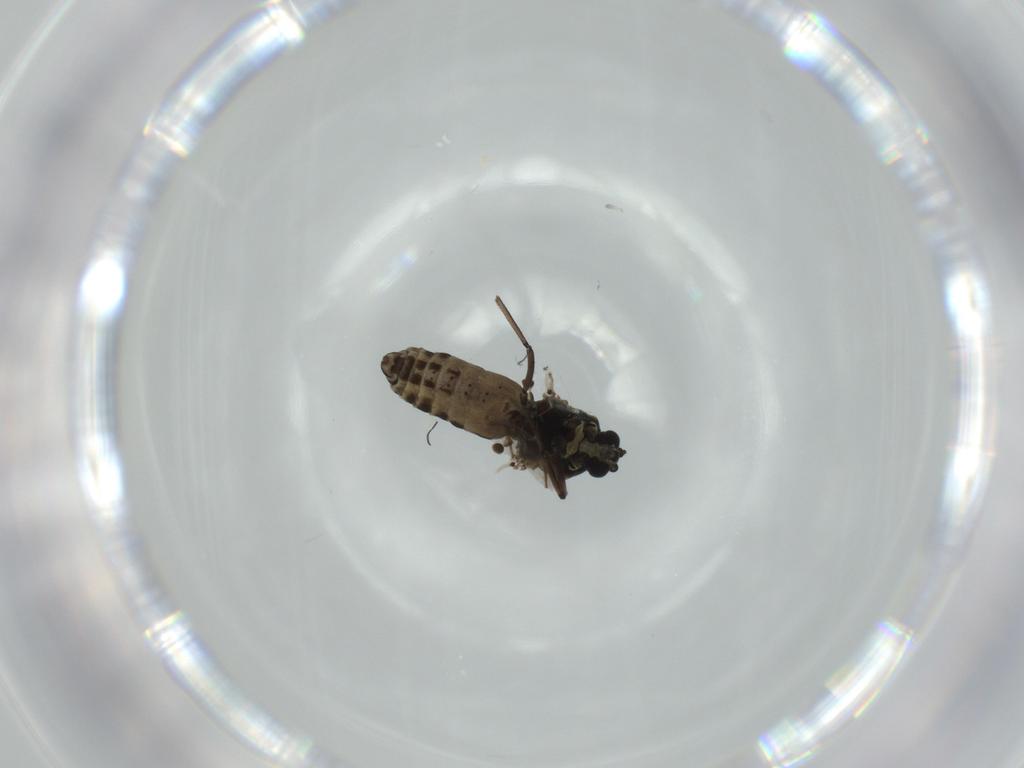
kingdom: Animalia
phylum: Arthropoda
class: Insecta
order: Diptera
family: Ceratopogonidae
